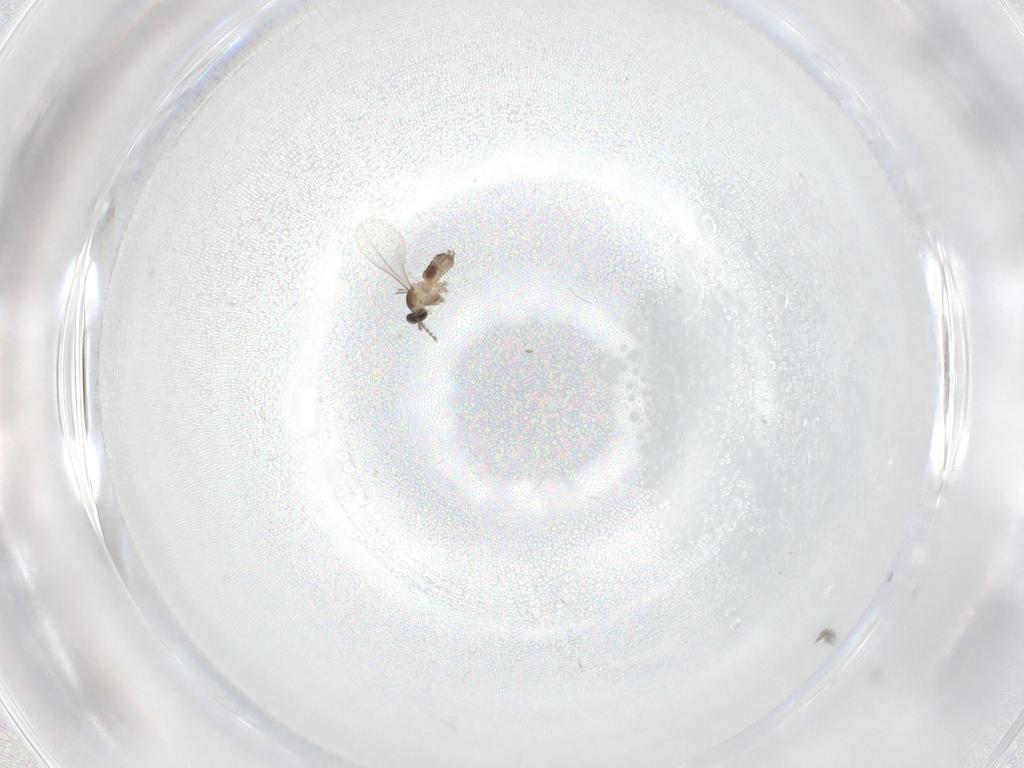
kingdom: Animalia
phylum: Arthropoda
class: Insecta
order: Diptera
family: Cecidomyiidae
